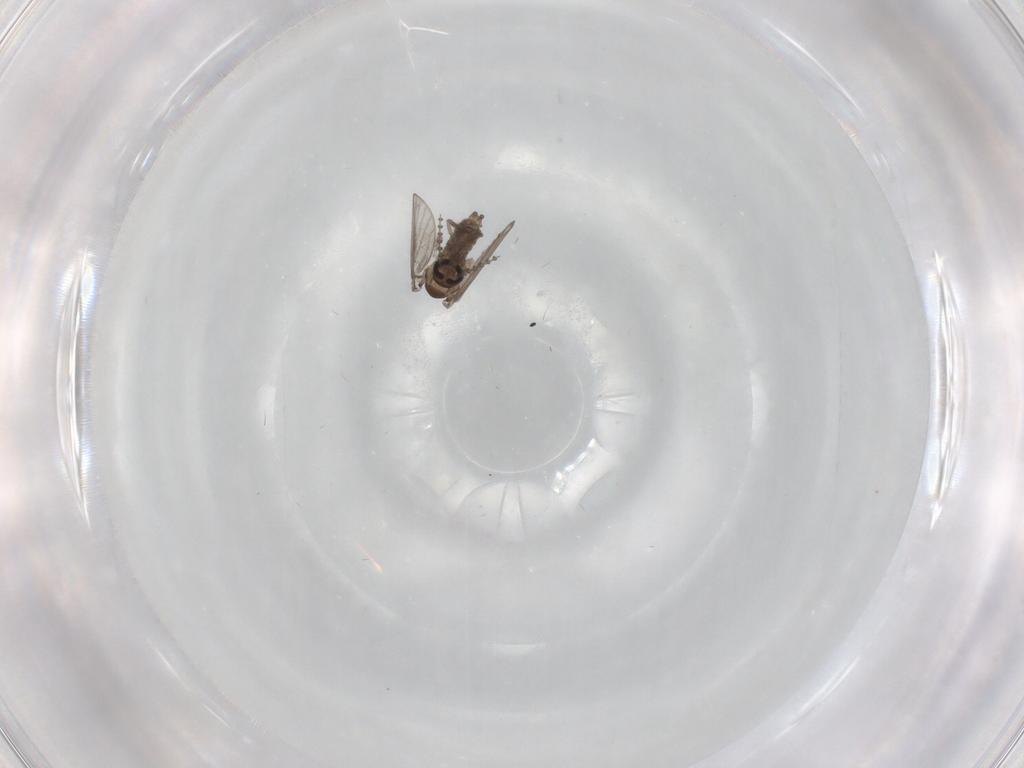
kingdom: Animalia
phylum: Arthropoda
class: Insecta
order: Diptera
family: Psychodidae
